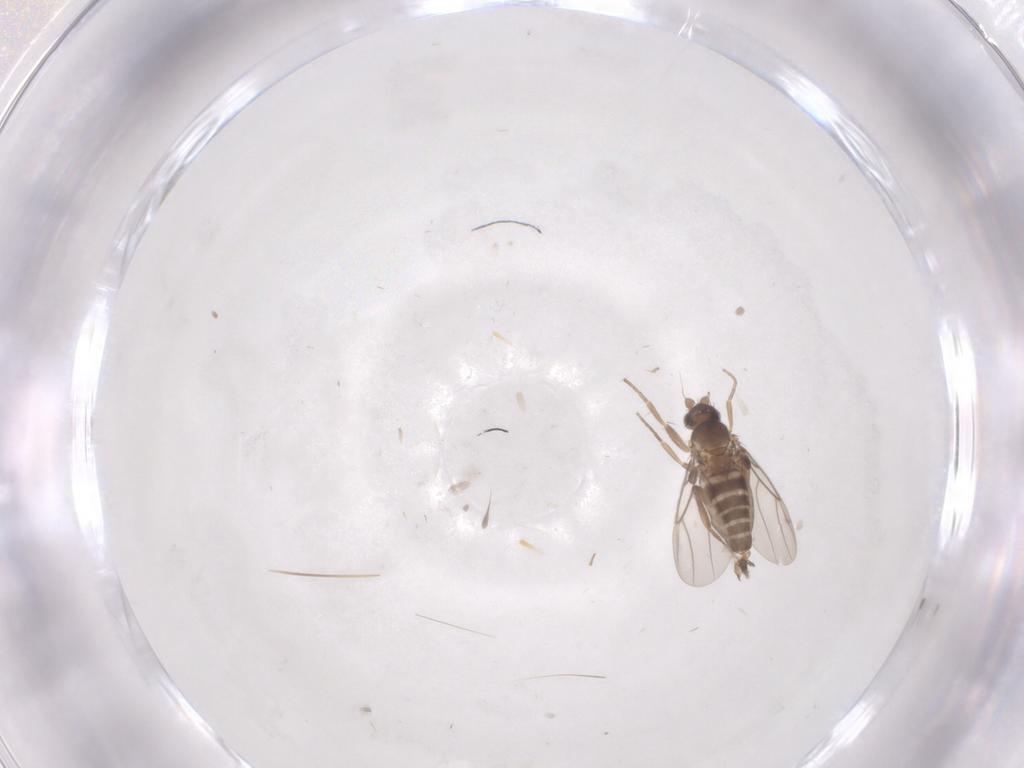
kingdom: Animalia
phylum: Arthropoda
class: Insecta
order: Diptera
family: Sciaridae
